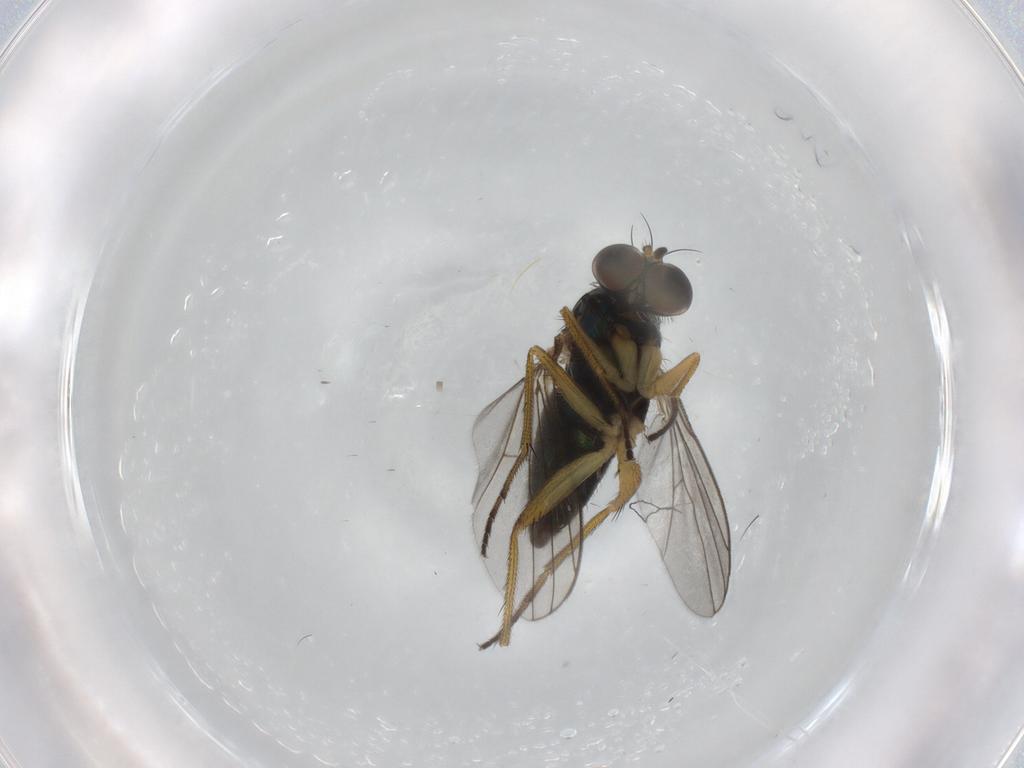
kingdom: Animalia
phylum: Arthropoda
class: Insecta
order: Diptera
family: Dolichopodidae
